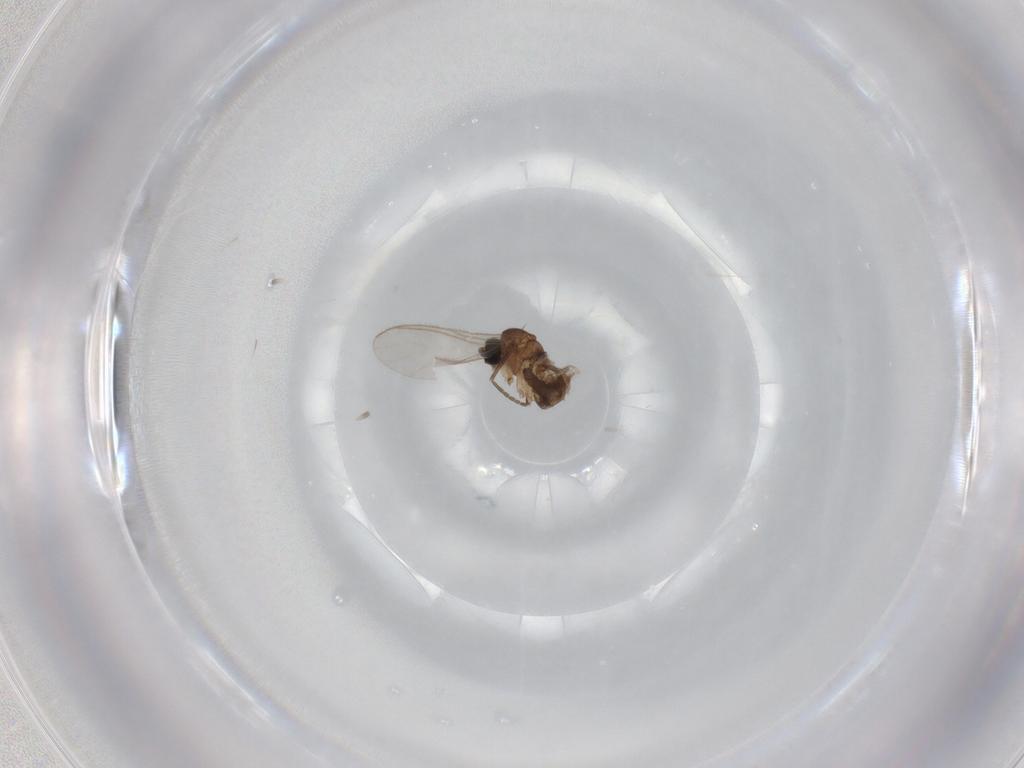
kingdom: Animalia
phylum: Arthropoda
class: Insecta
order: Diptera
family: Sciaridae
